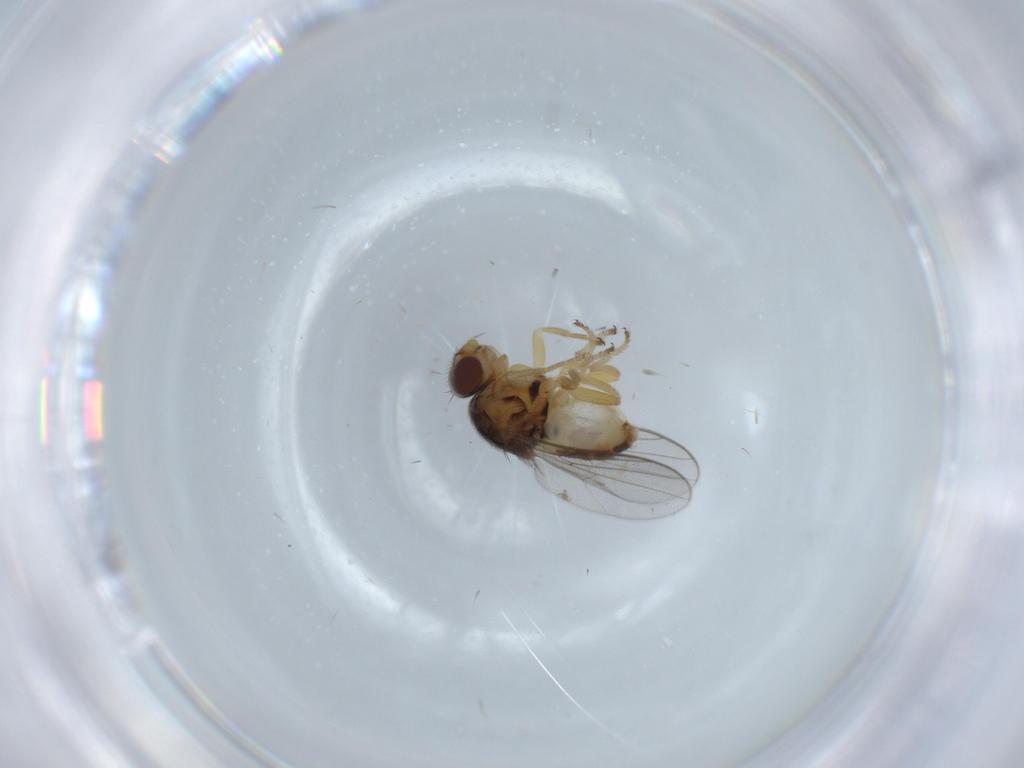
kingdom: Animalia
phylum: Arthropoda
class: Insecta
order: Diptera
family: Chloropidae
